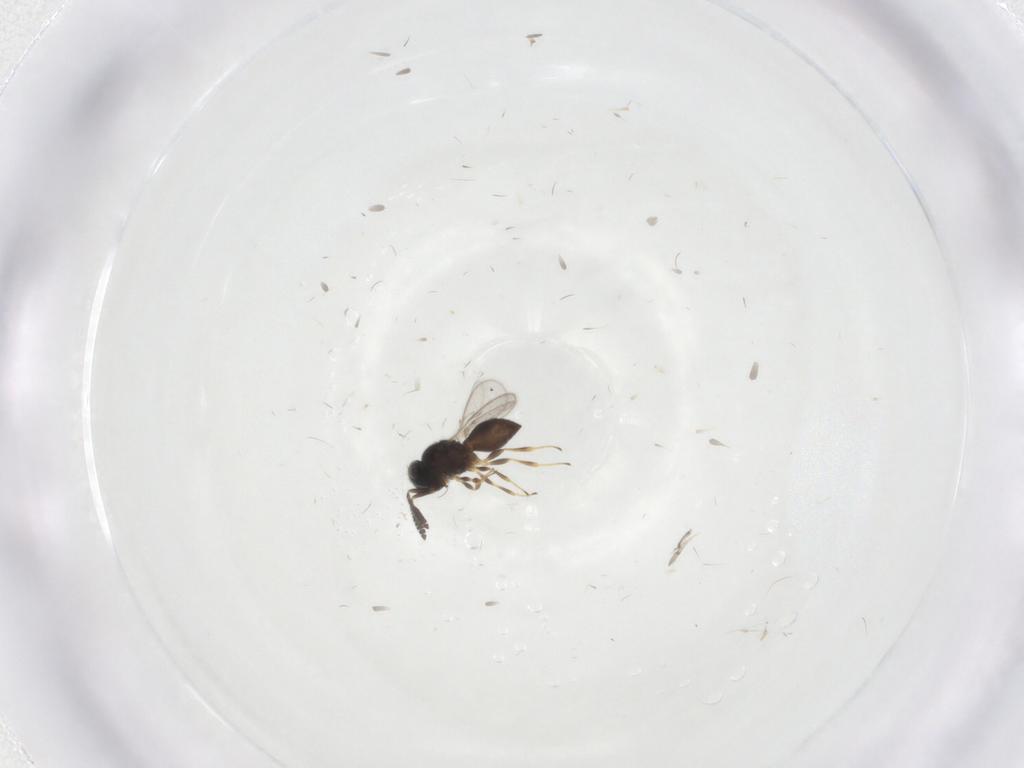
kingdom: Animalia
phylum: Arthropoda
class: Insecta
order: Hymenoptera
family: Scelionidae
